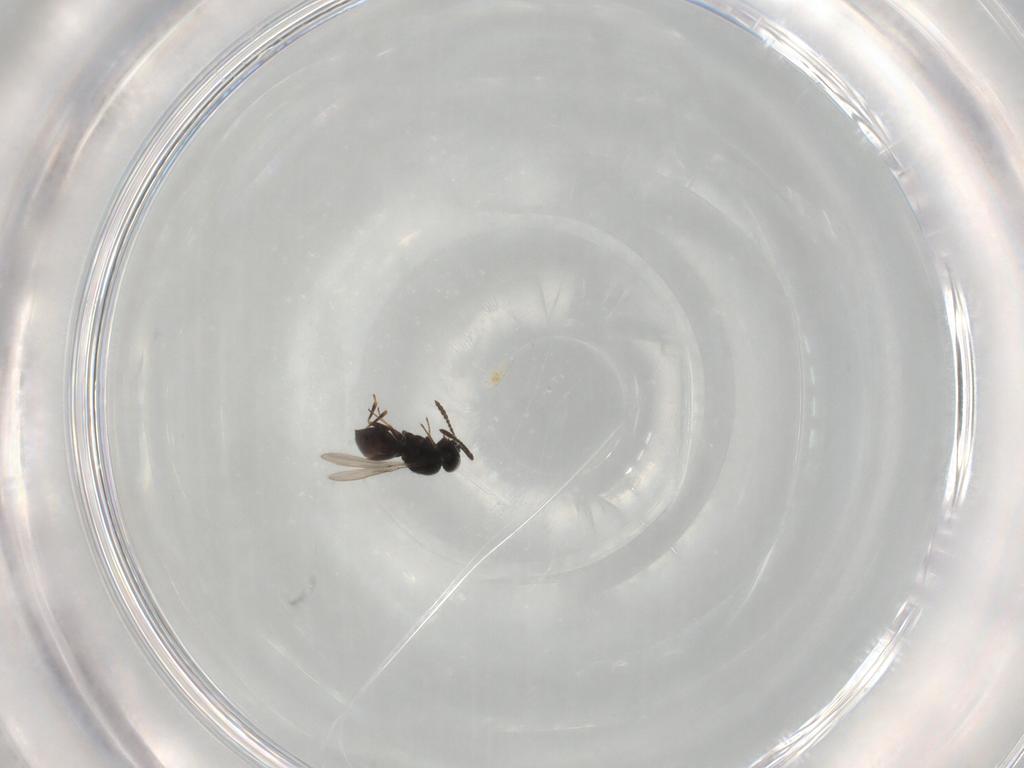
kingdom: Animalia
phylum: Arthropoda
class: Insecta
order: Hymenoptera
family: Scelionidae
